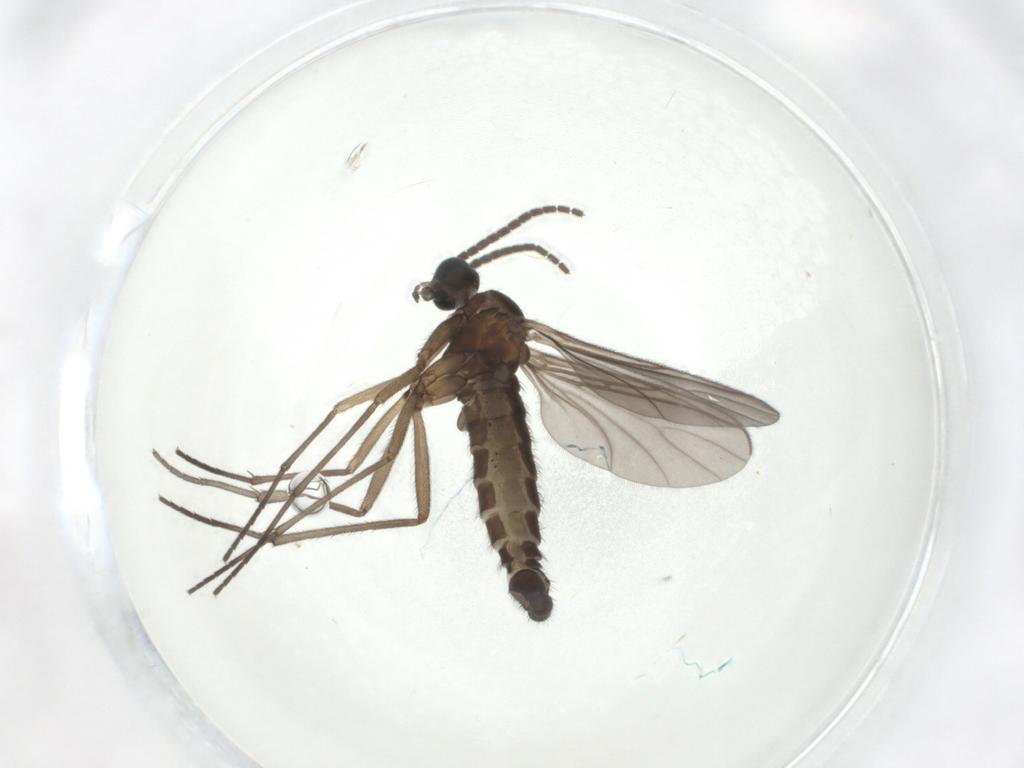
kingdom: Animalia
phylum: Arthropoda
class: Insecta
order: Diptera
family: Sciaridae
